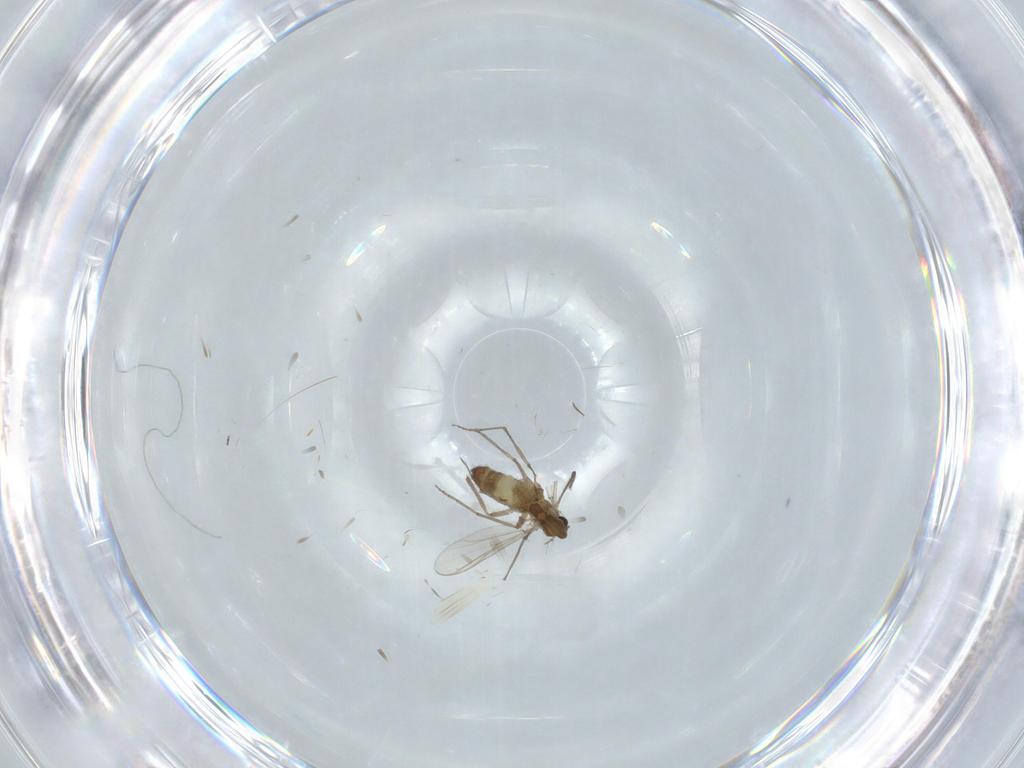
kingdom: Animalia
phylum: Arthropoda
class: Insecta
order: Diptera
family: Chironomidae
